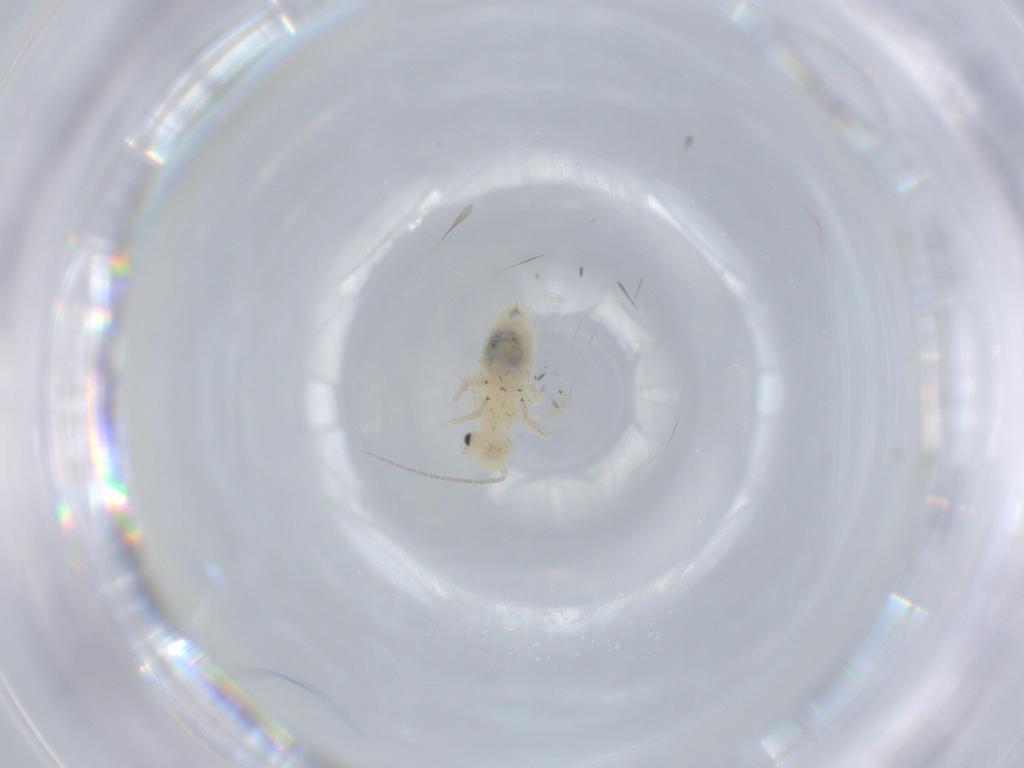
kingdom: Animalia
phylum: Arthropoda
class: Insecta
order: Psocodea
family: Caeciliusidae
